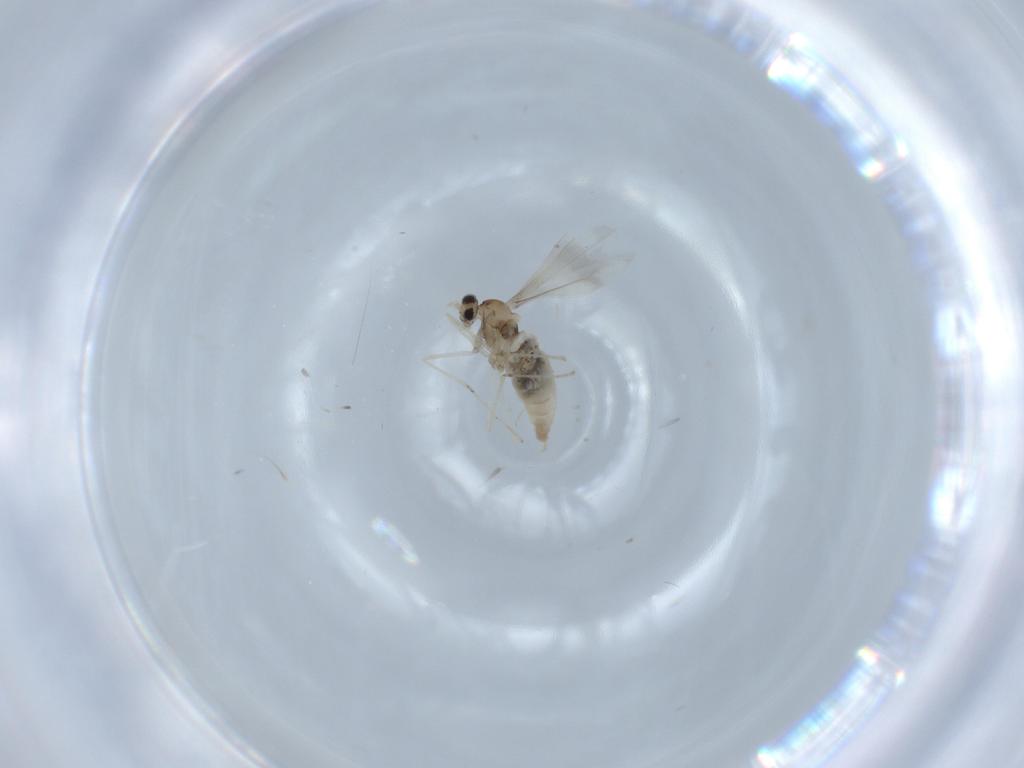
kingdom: Animalia
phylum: Arthropoda
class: Insecta
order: Diptera
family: Cecidomyiidae
